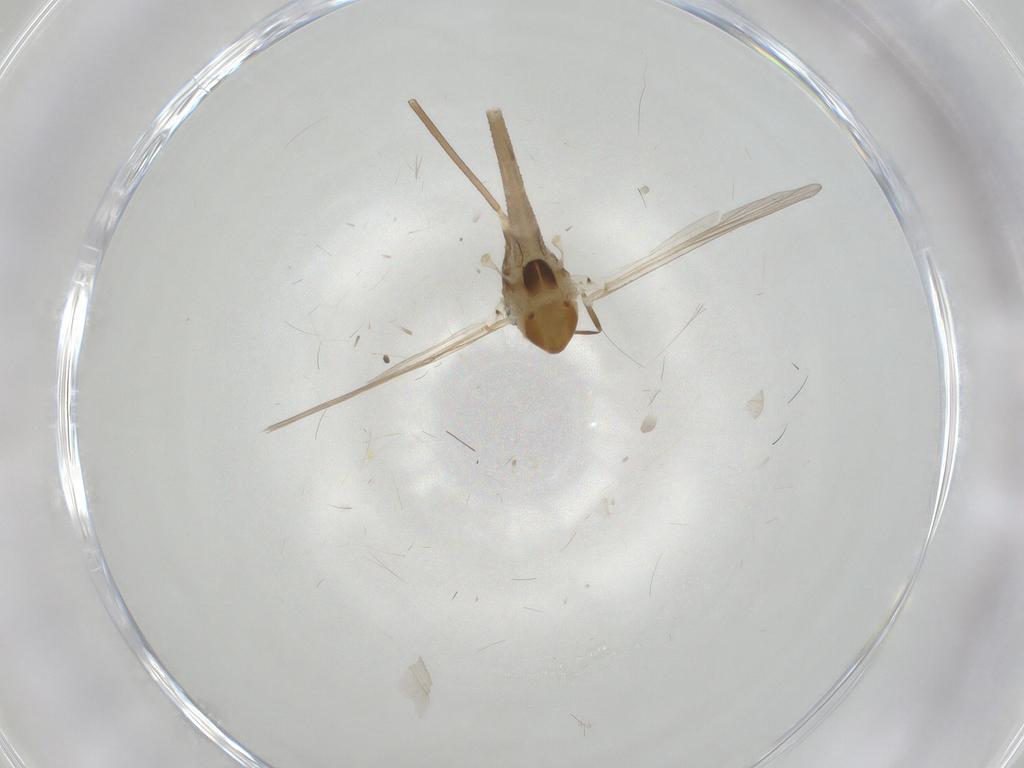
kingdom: Animalia
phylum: Arthropoda
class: Insecta
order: Diptera
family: Chironomidae
